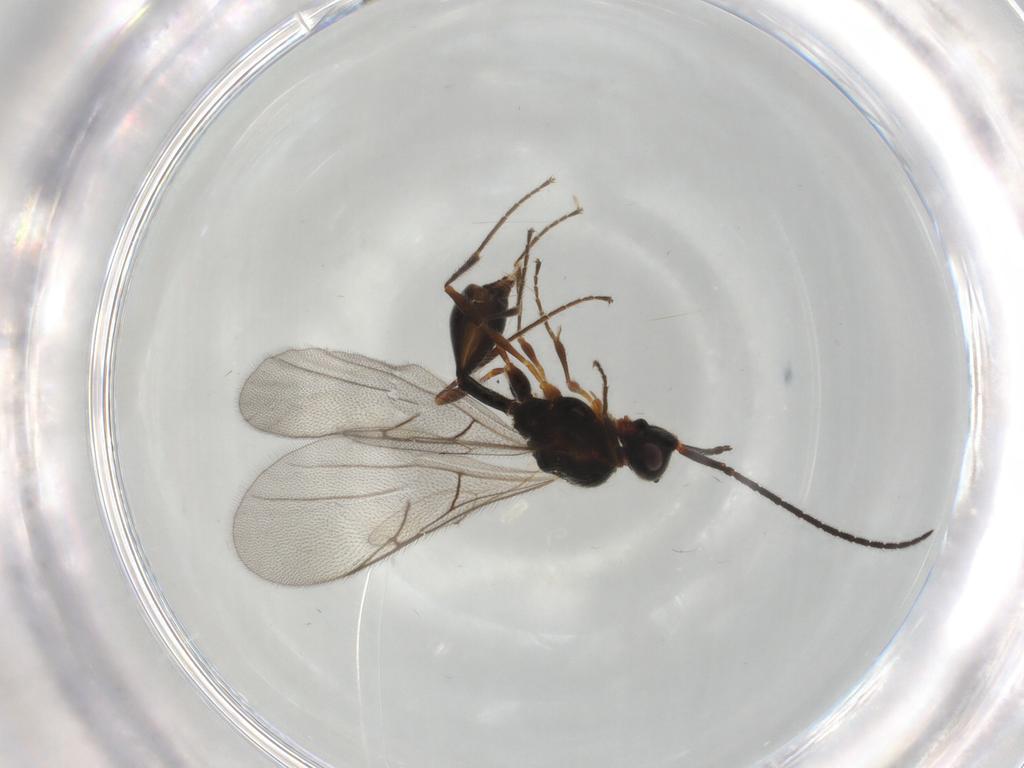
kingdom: Animalia
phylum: Arthropoda
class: Insecta
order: Hymenoptera
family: Diapriidae
